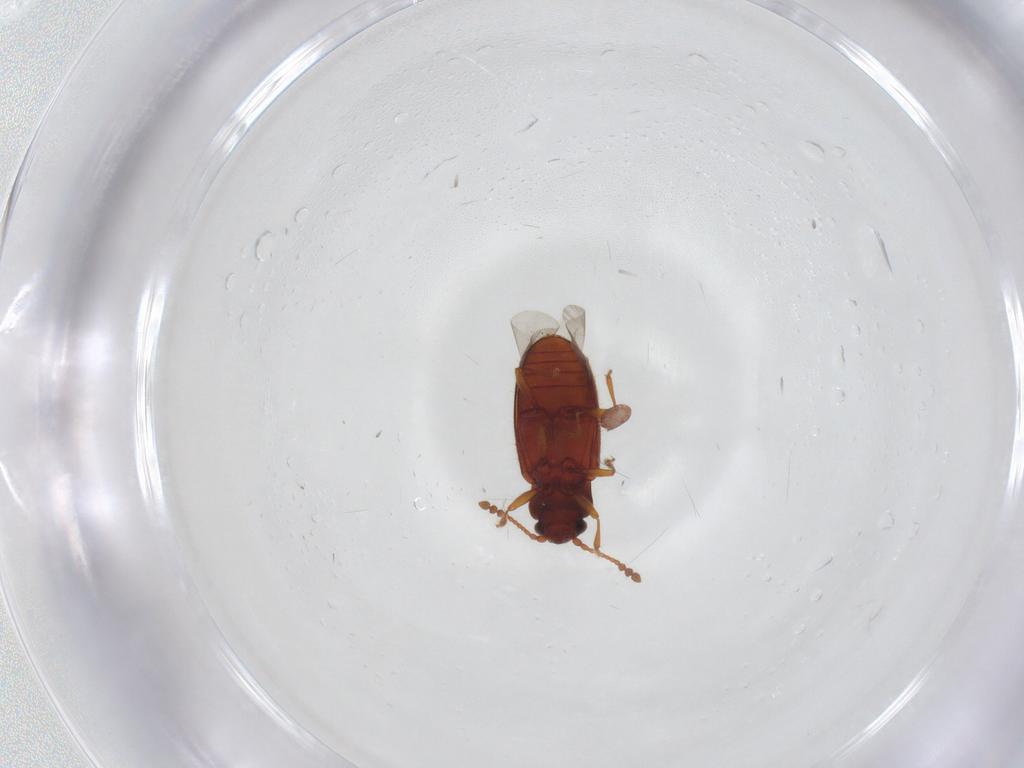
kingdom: Animalia
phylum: Arthropoda
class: Insecta
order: Coleoptera
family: Cryptophagidae
